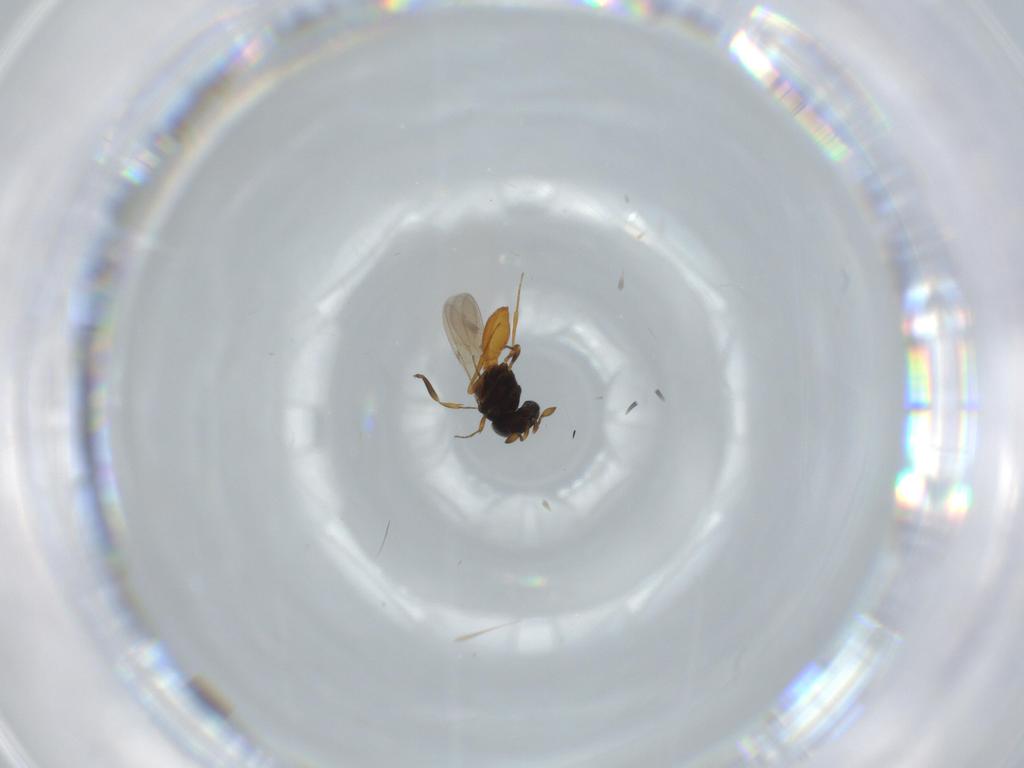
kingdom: Animalia
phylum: Arthropoda
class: Insecta
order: Hymenoptera
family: Scelionidae
